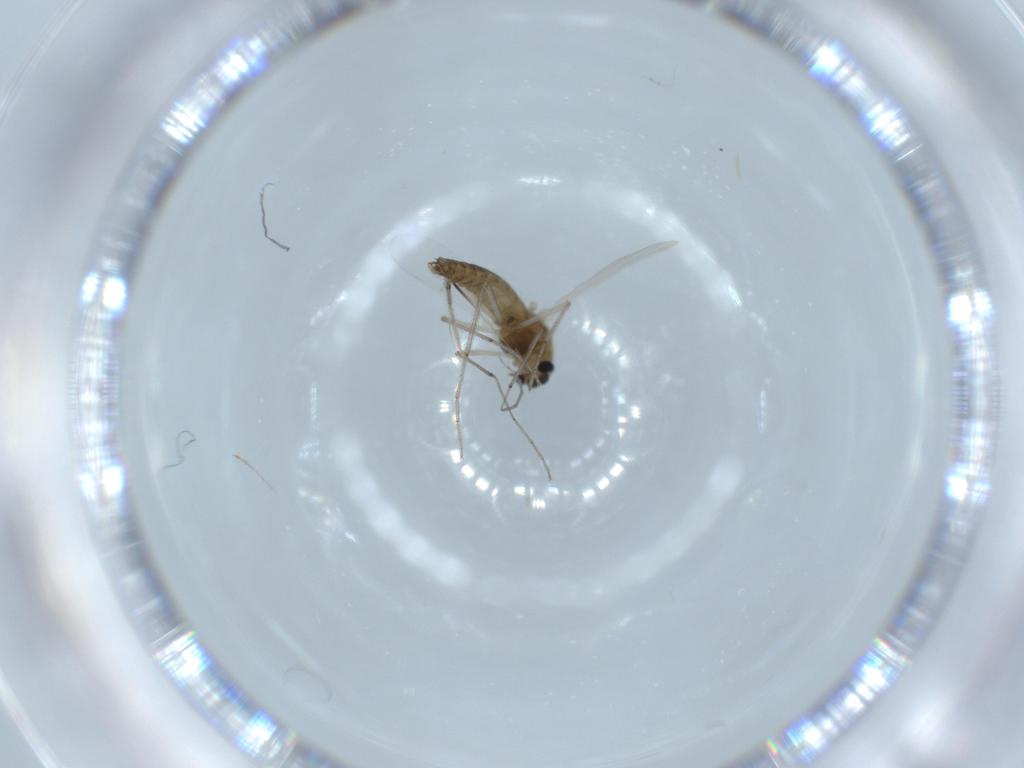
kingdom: Animalia
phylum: Arthropoda
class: Insecta
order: Diptera
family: Chironomidae
